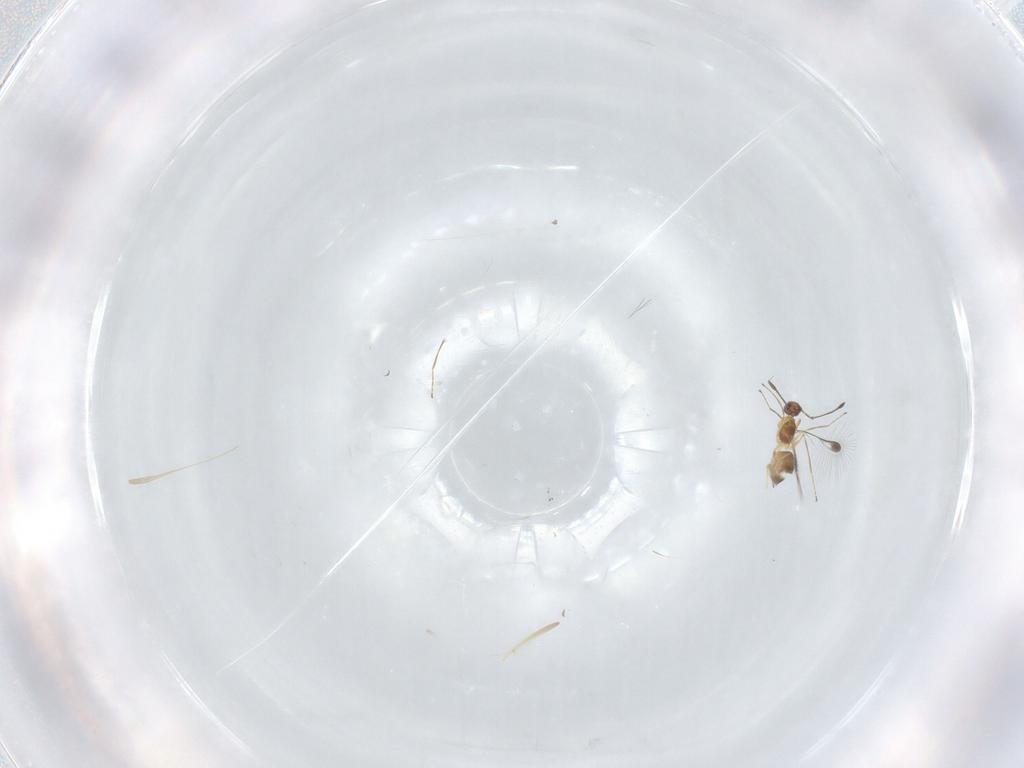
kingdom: Animalia
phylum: Arthropoda
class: Insecta
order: Hymenoptera
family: Mymaridae
